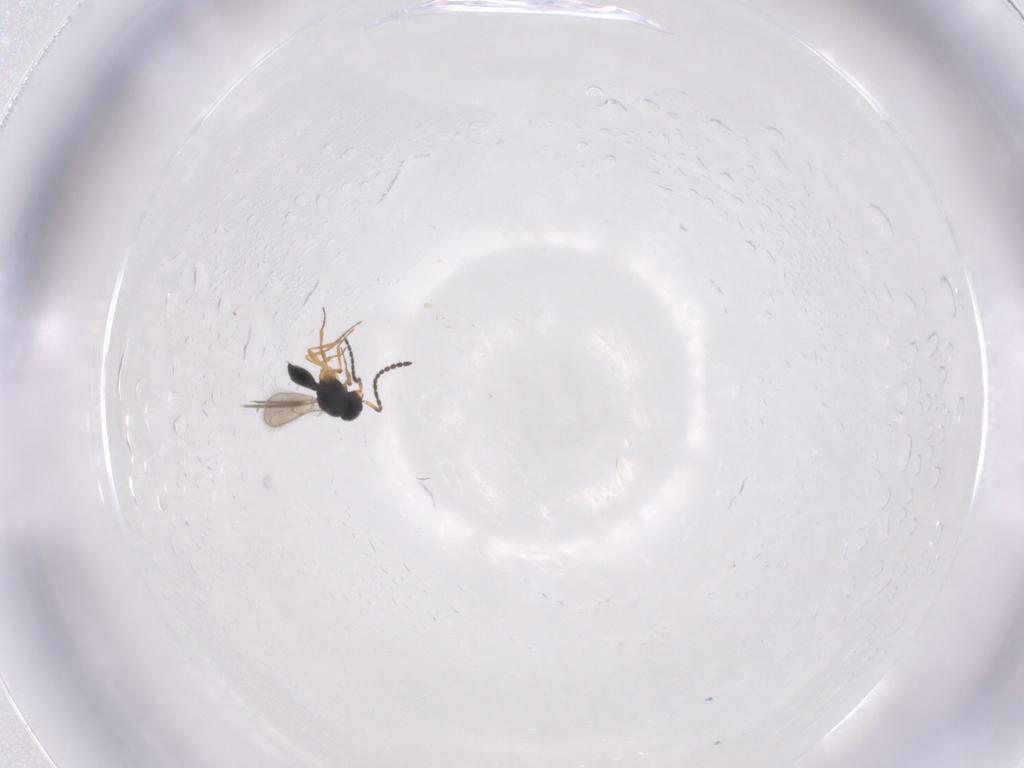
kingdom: Animalia
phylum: Arthropoda
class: Insecta
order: Hymenoptera
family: Scelionidae
